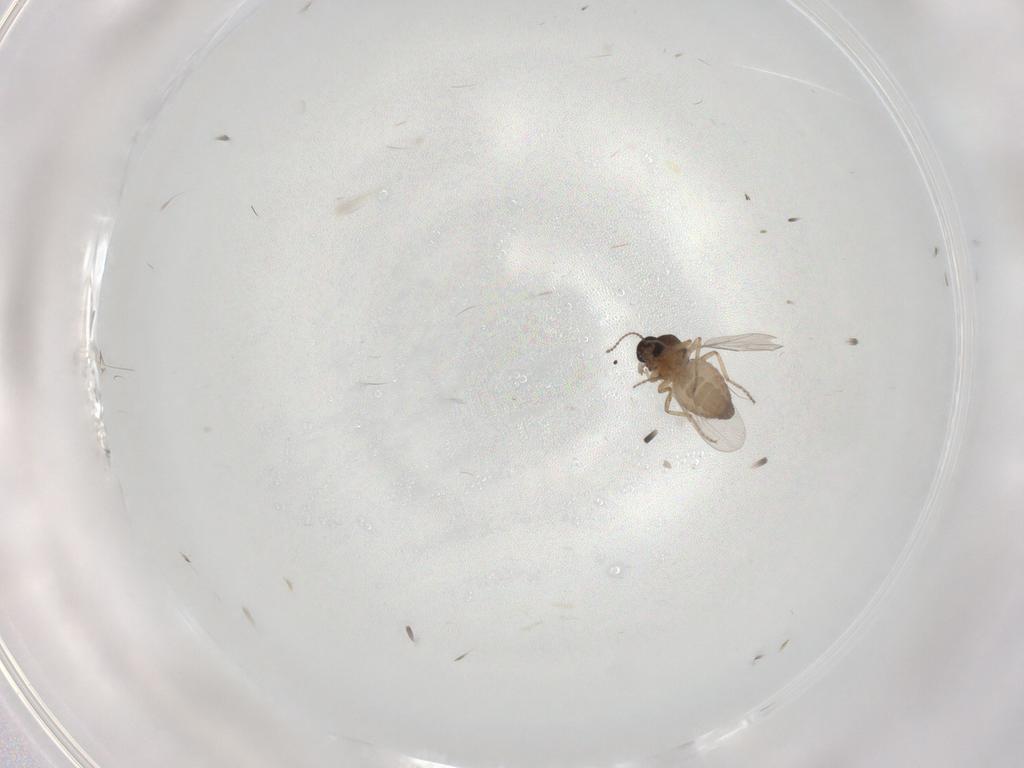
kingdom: Animalia
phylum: Arthropoda
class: Insecta
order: Diptera
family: Ceratopogonidae
